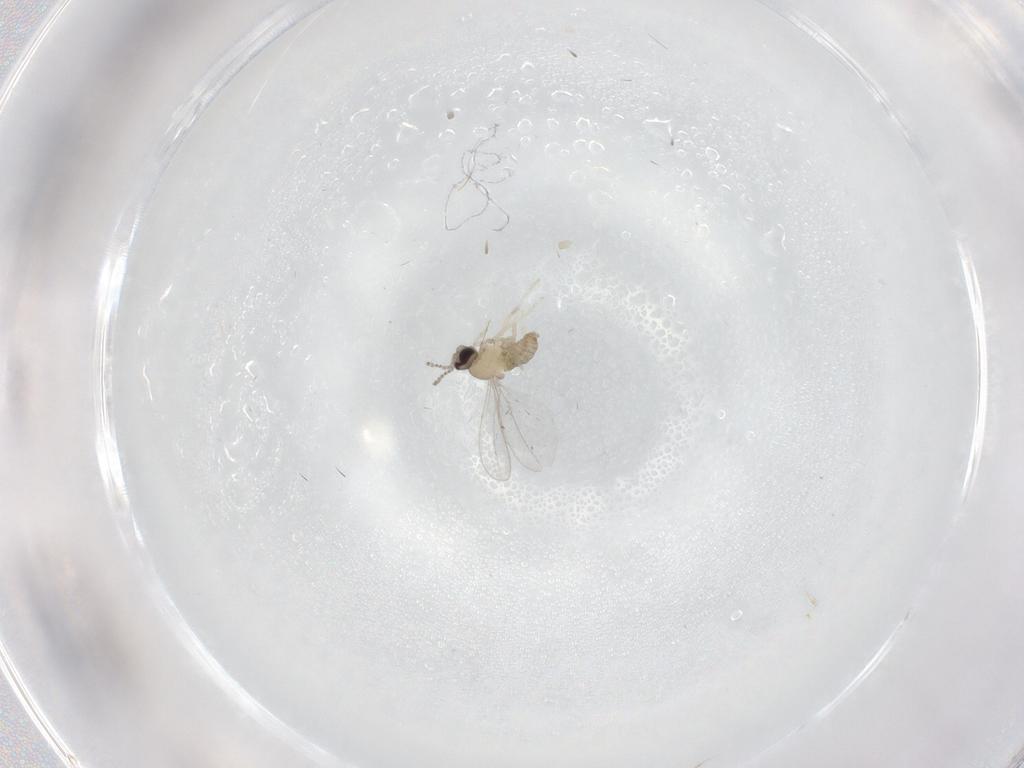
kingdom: Animalia
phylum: Arthropoda
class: Insecta
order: Diptera
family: Cecidomyiidae
